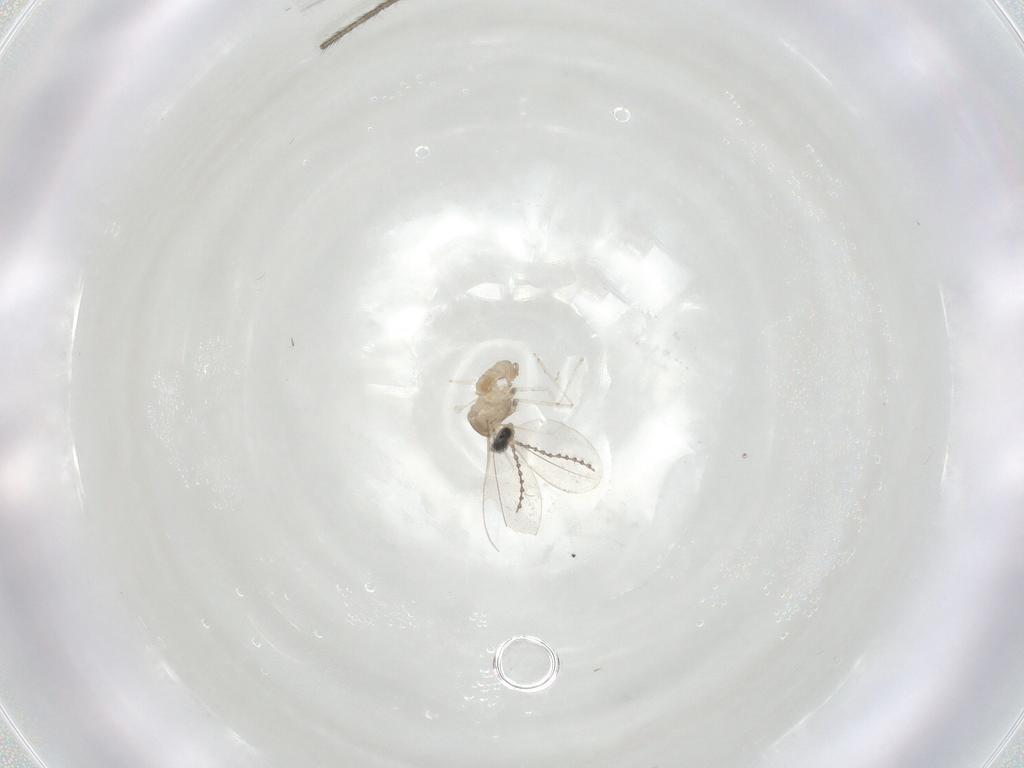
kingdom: Animalia
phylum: Arthropoda
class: Insecta
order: Diptera
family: Cecidomyiidae
